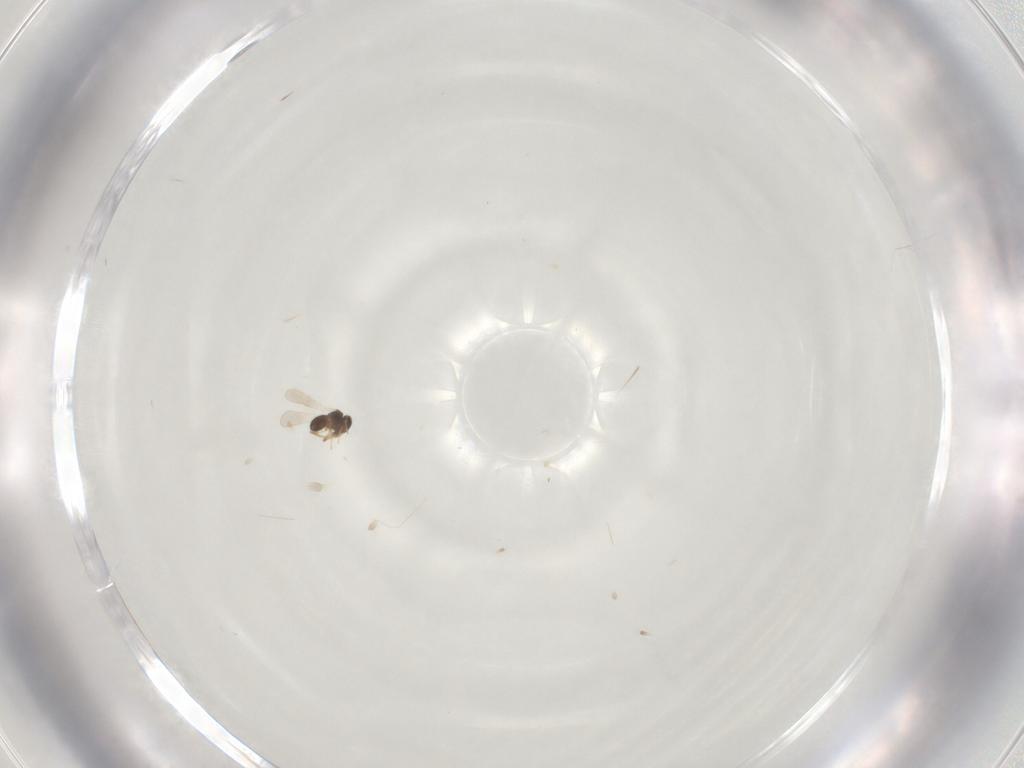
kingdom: Animalia
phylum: Arthropoda
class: Insecta
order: Hymenoptera
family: Platygastridae
